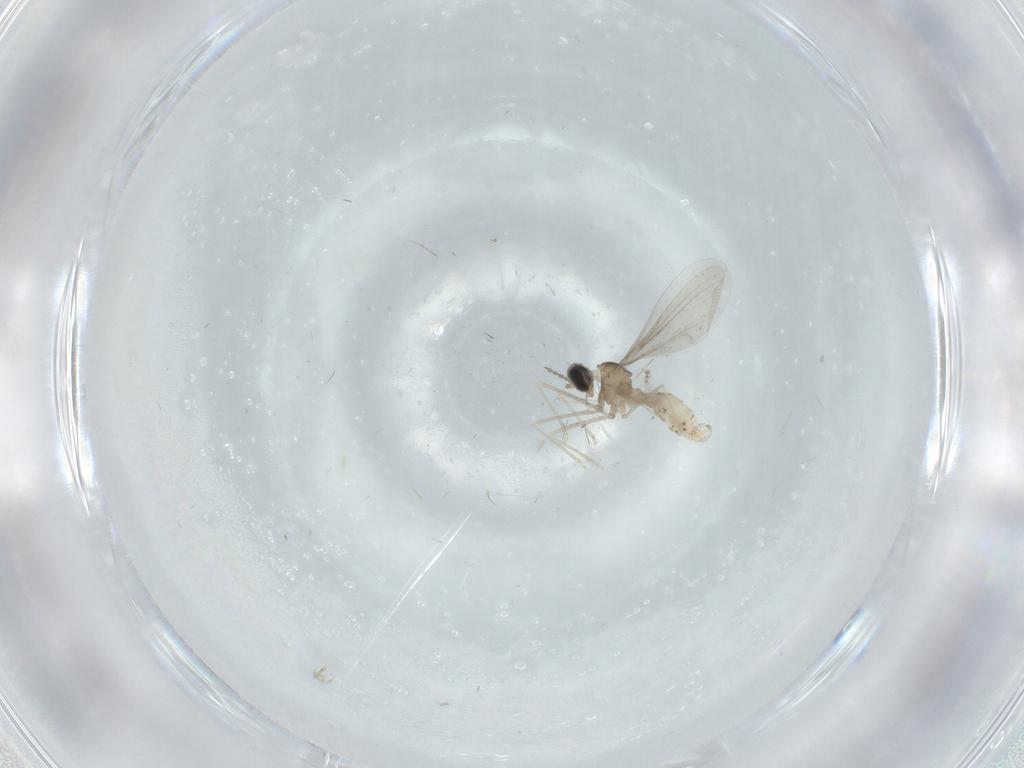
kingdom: Animalia
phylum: Arthropoda
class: Insecta
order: Diptera
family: Cecidomyiidae
